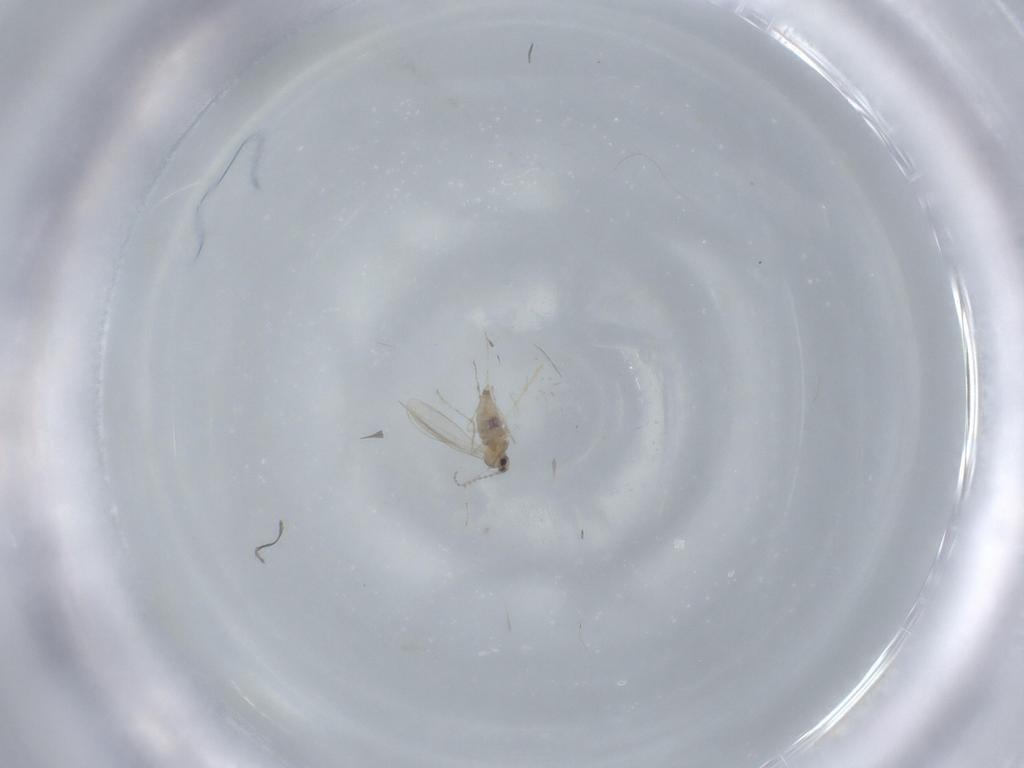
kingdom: Animalia
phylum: Arthropoda
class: Insecta
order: Diptera
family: Cecidomyiidae
